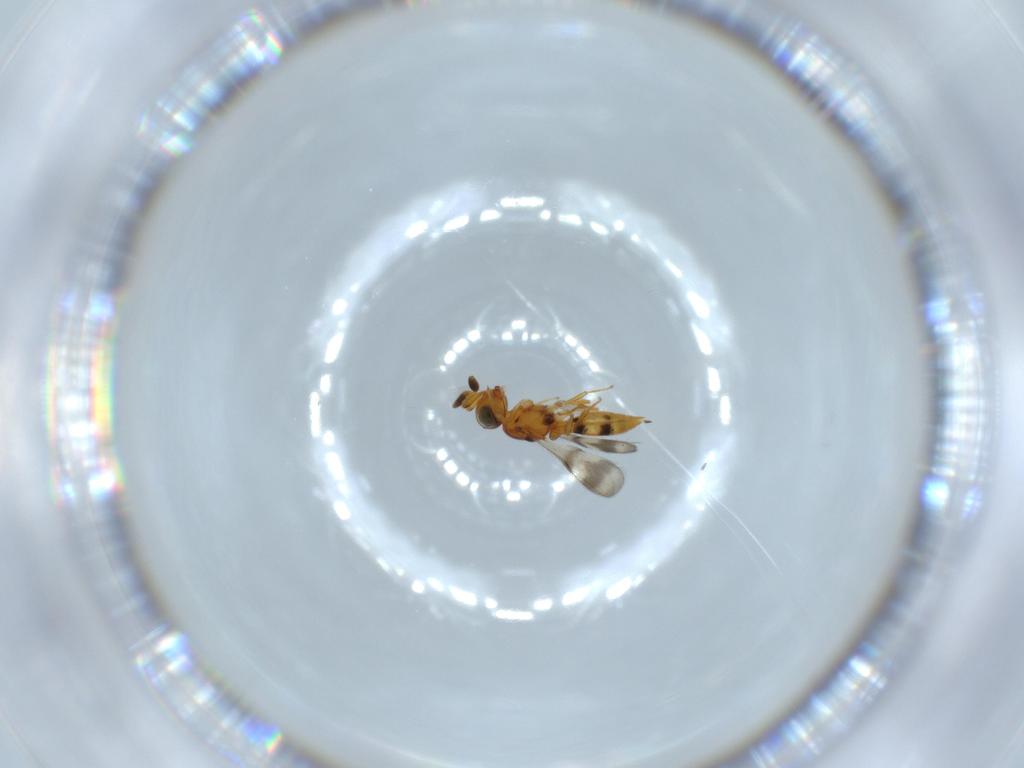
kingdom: Animalia
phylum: Arthropoda
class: Insecta
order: Hymenoptera
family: Scelionidae
